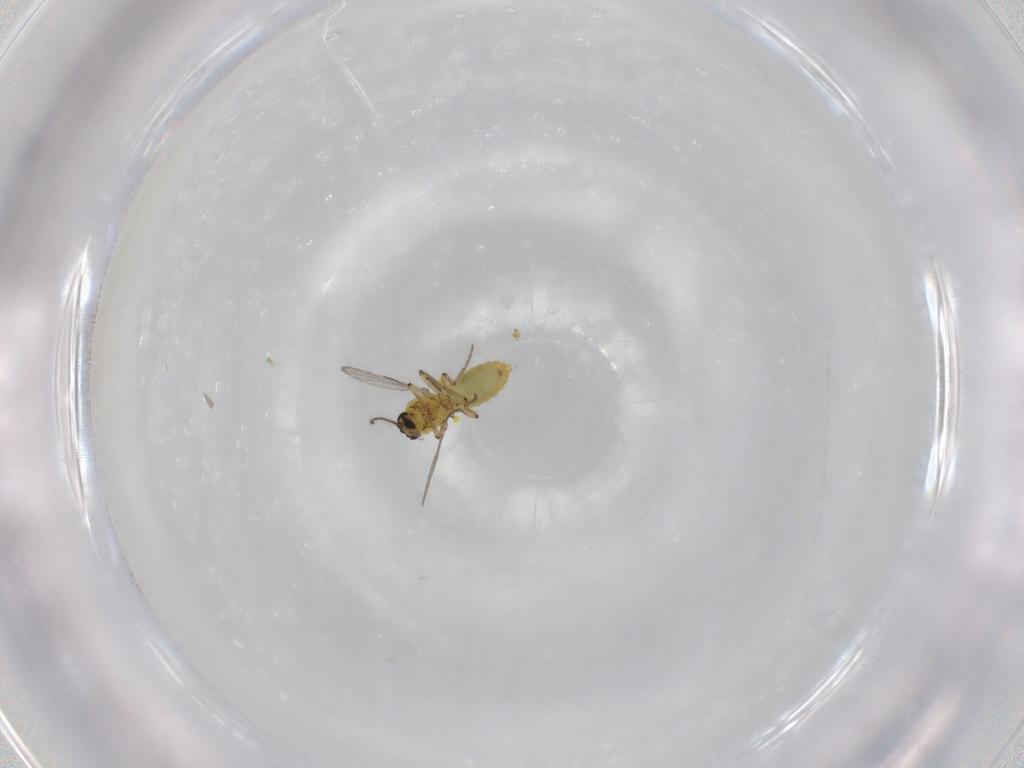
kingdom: Animalia
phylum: Arthropoda
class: Insecta
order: Diptera
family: Ceratopogonidae
